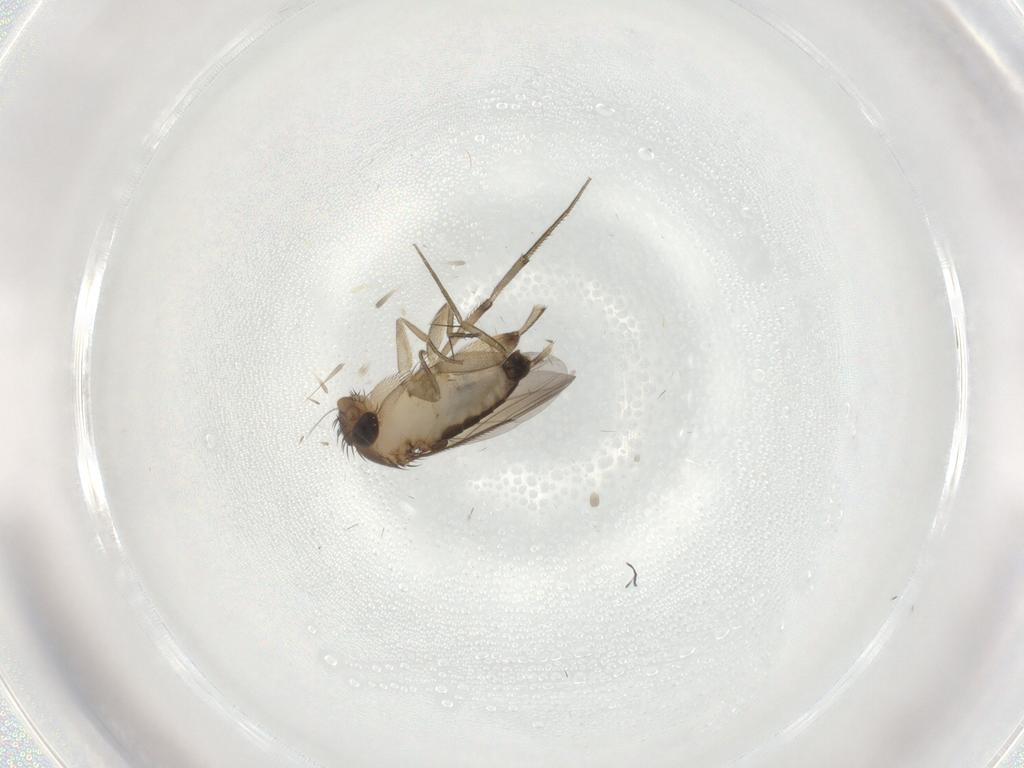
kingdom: Animalia
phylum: Arthropoda
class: Insecta
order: Diptera
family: Phoridae
